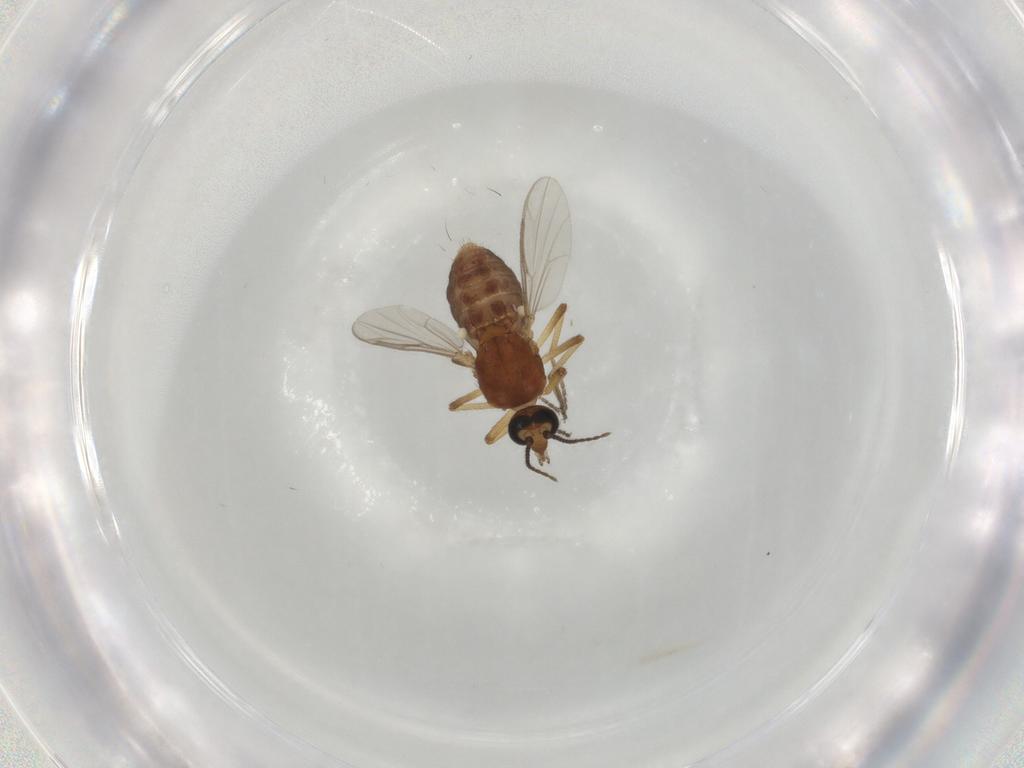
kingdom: Animalia
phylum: Arthropoda
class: Insecta
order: Diptera
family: Ceratopogonidae
